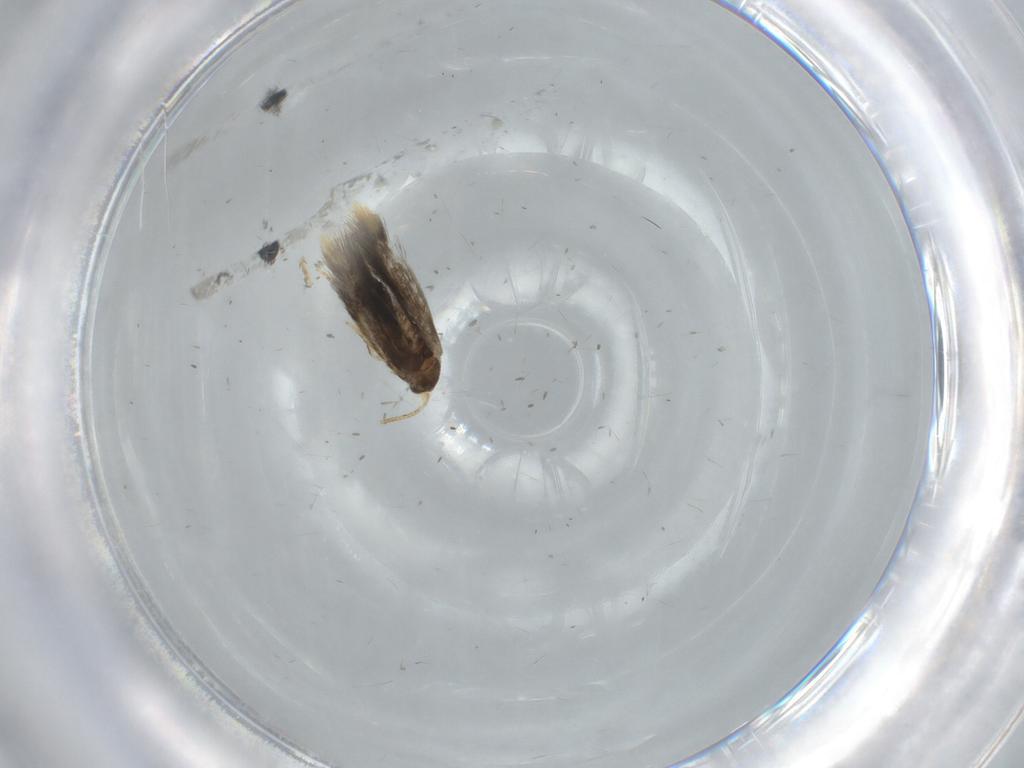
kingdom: Animalia
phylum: Arthropoda
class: Insecta
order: Lepidoptera
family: Copromorphidae
